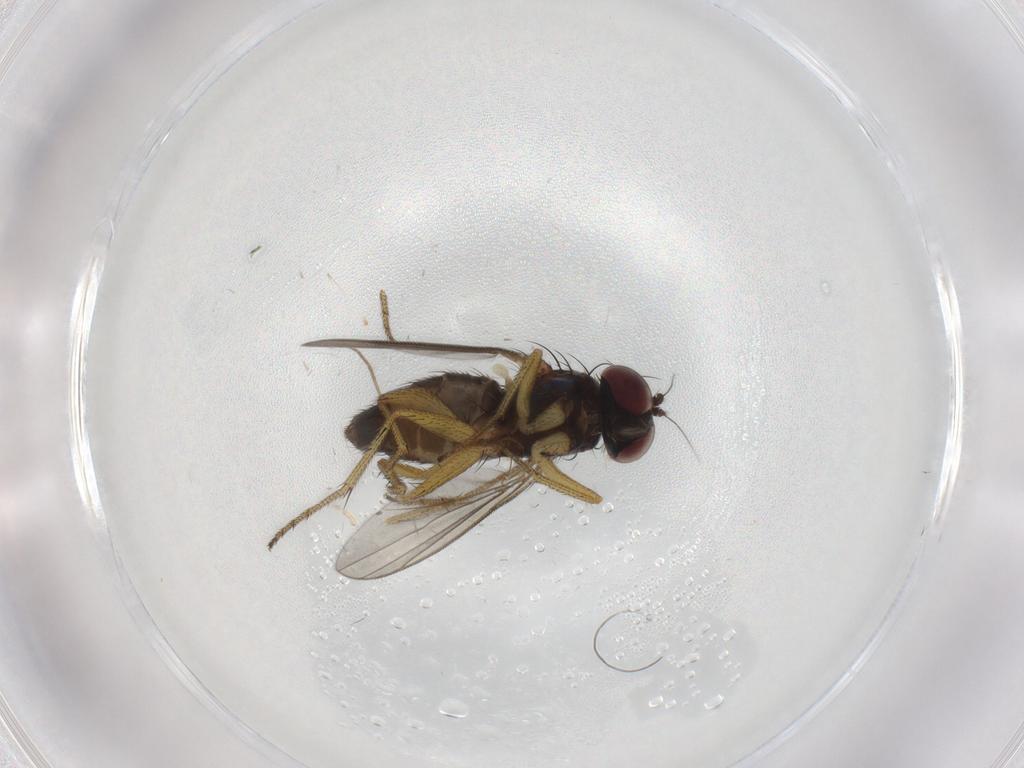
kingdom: Animalia
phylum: Arthropoda
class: Insecta
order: Diptera
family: Chironomidae
